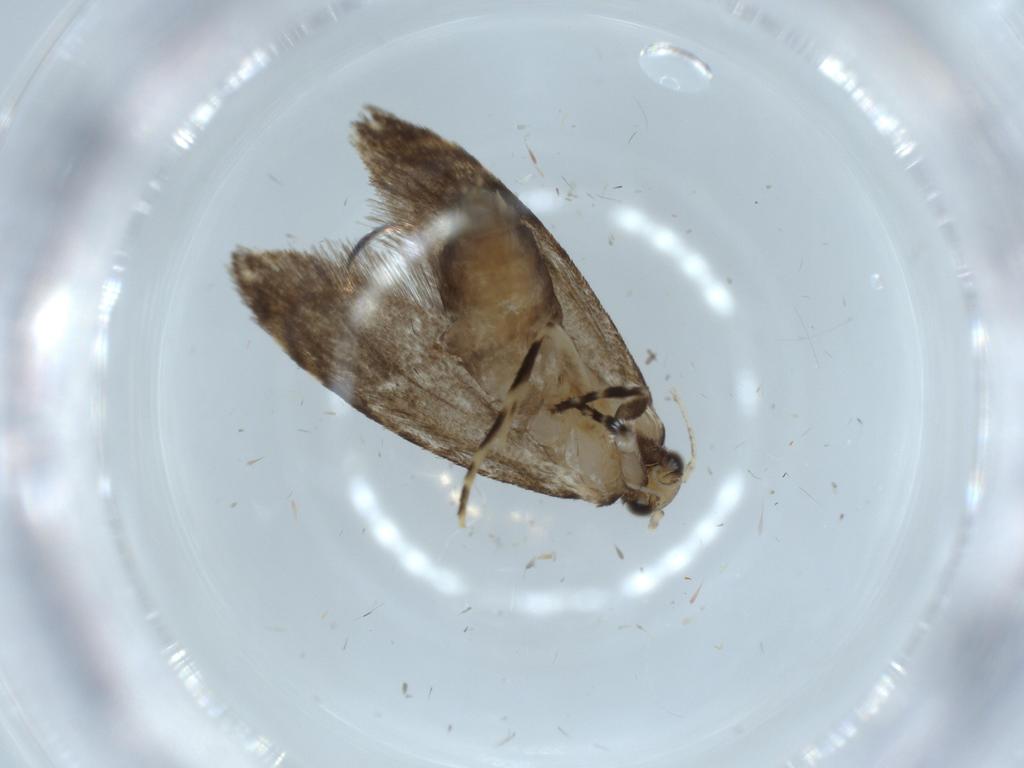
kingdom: Animalia
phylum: Arthropoda
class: Insecta
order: Lepidoptera
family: Tineidae
